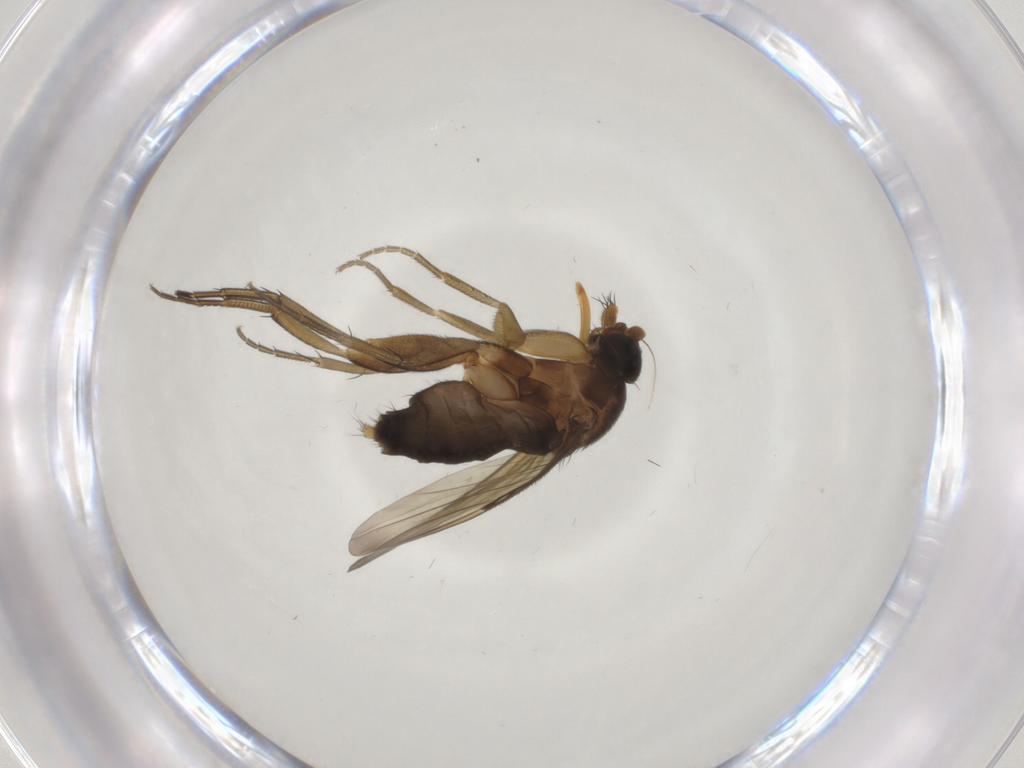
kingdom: Animalia
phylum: Arthropoda
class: Insecta
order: Diptera
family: Phoridae
